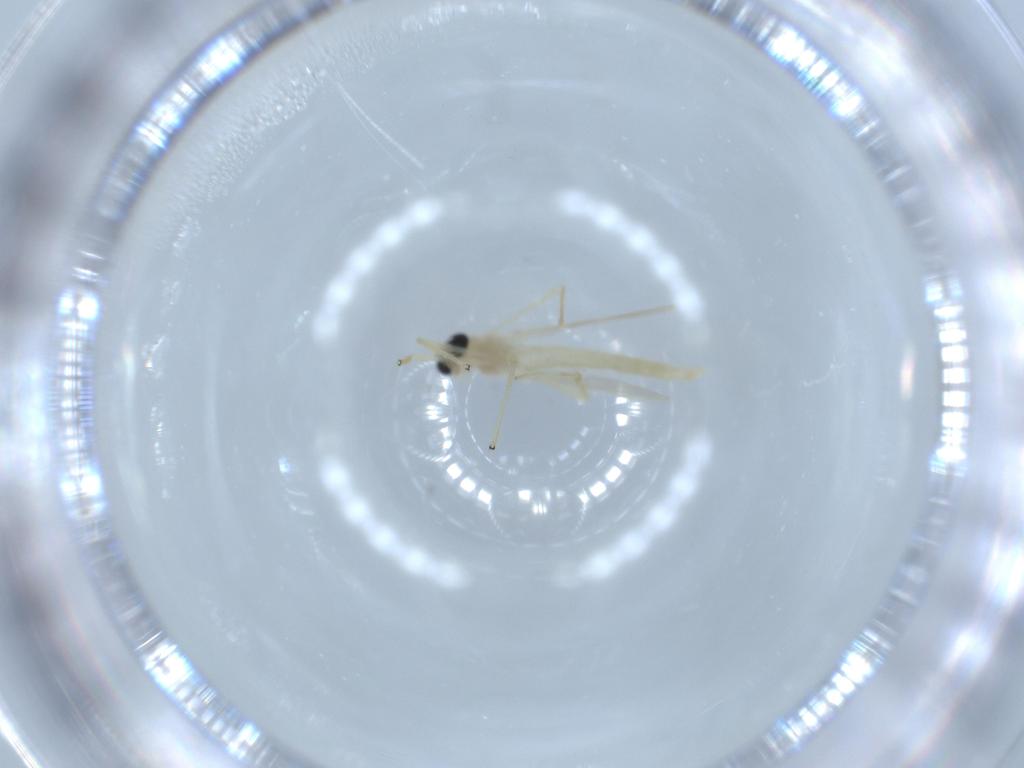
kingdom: Animalia
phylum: Arthropoda
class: Insecta
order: Diptera
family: Chironomidae
